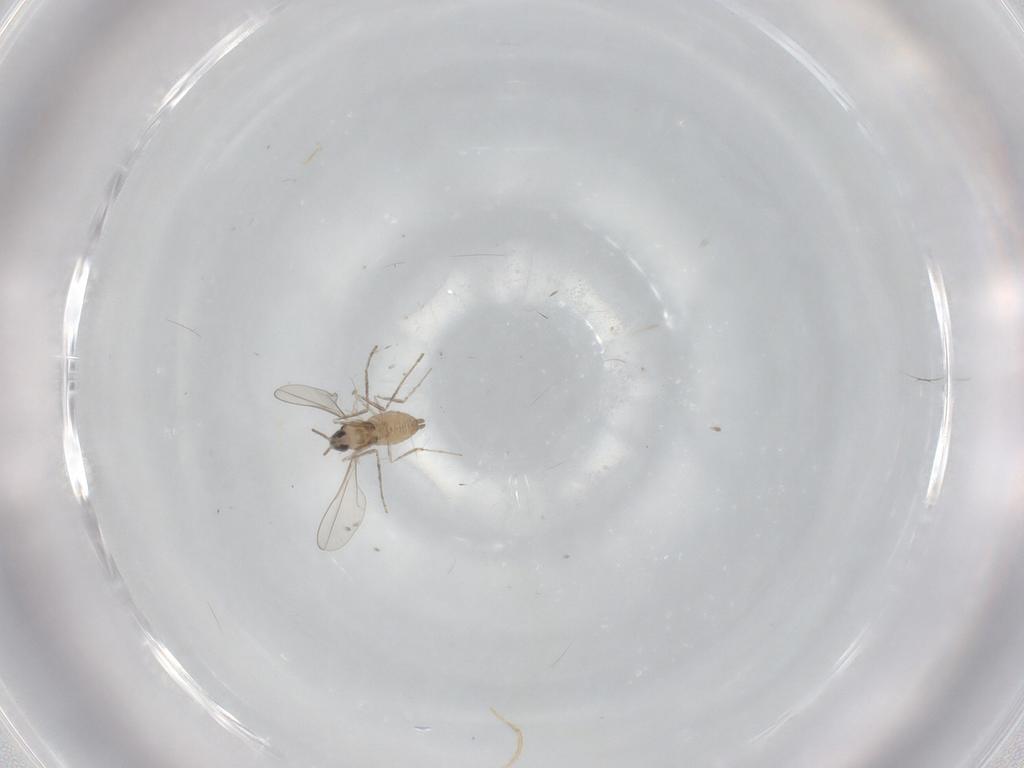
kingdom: Animalia
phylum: Arthropoda
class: Insecta
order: Diptera
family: Cecidomyiidae
